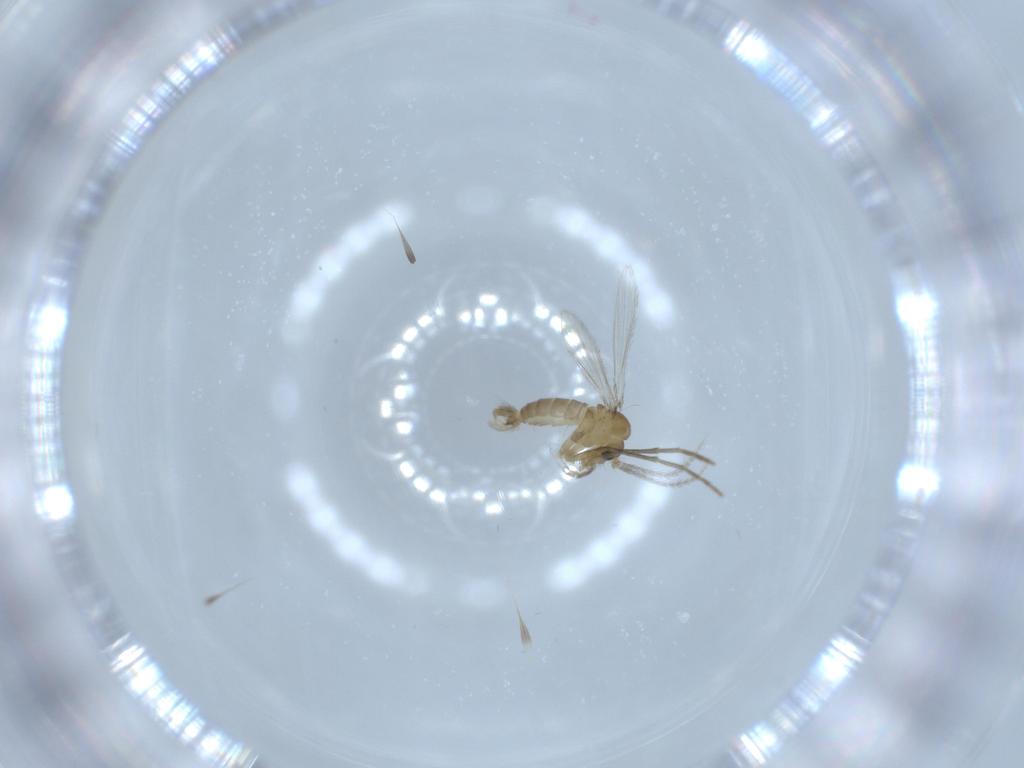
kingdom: Animalia
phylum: Arthropoda
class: Insecta
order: Diptera
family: Psychodidae
